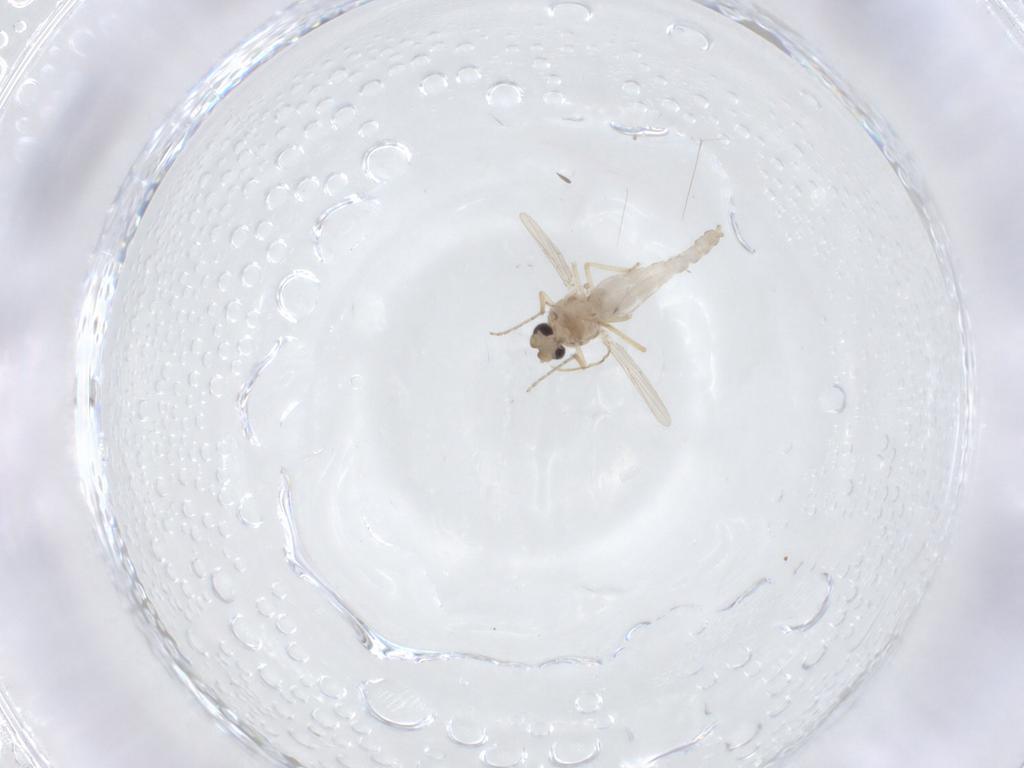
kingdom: Animalia
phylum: Arthropoda
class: Insecta
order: Diptera
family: Ceratopogonidae
